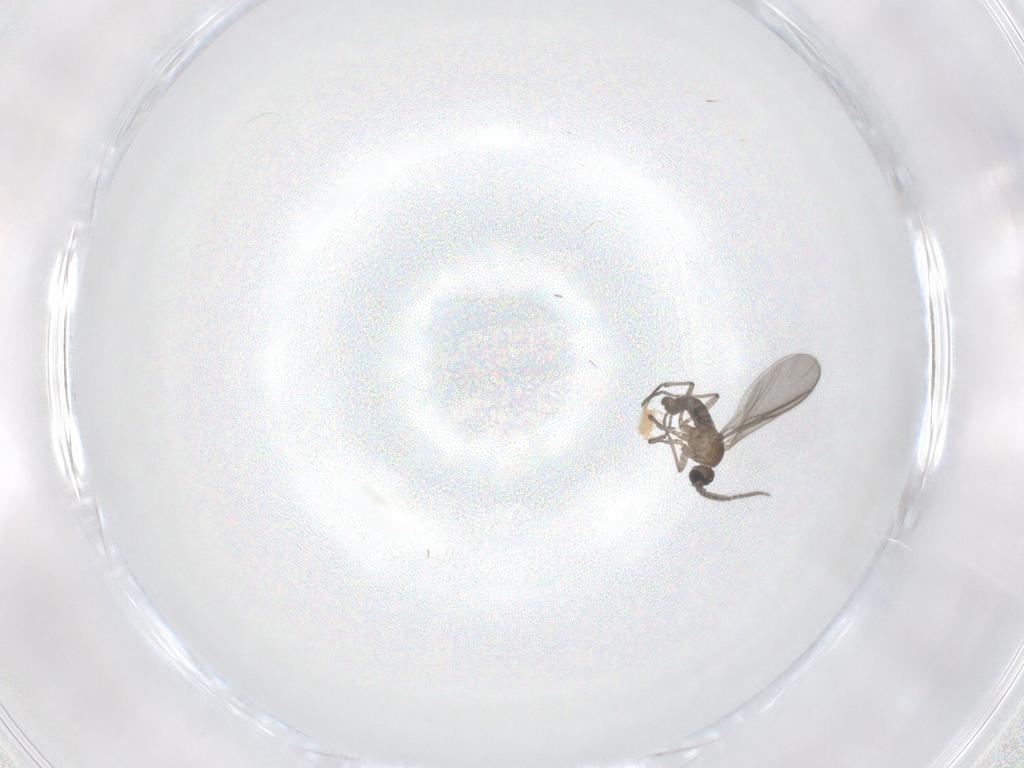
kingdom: Animalia
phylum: Arthropoda
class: Insecta
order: Diptera
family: Sciaridae
